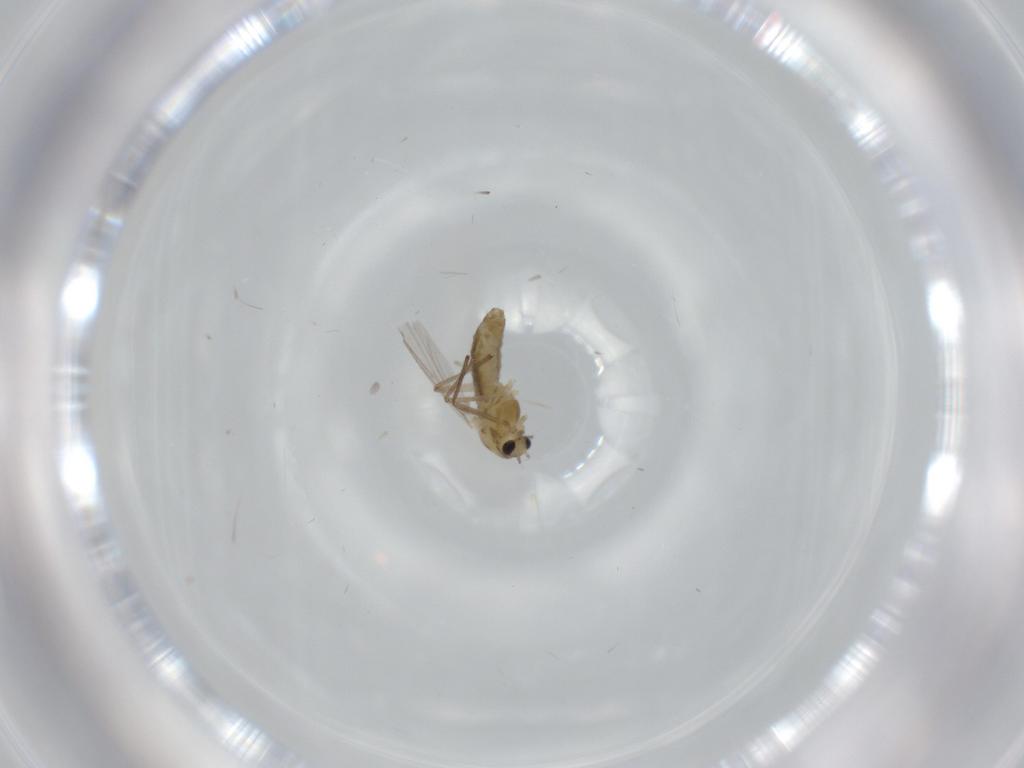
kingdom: Animalia
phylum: Arthropoda
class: Insecta
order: Diptera
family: Chironomidae
